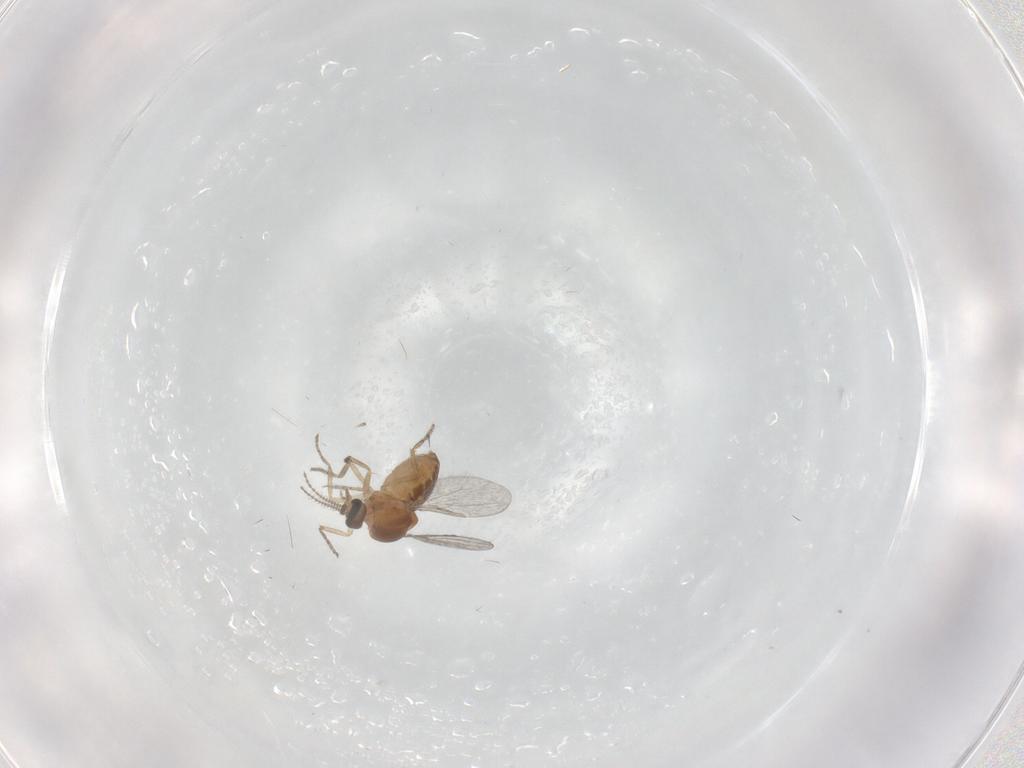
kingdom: Animalia
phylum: Arthropoda
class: Insecta
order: Diptera
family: Ceratopogonidae
